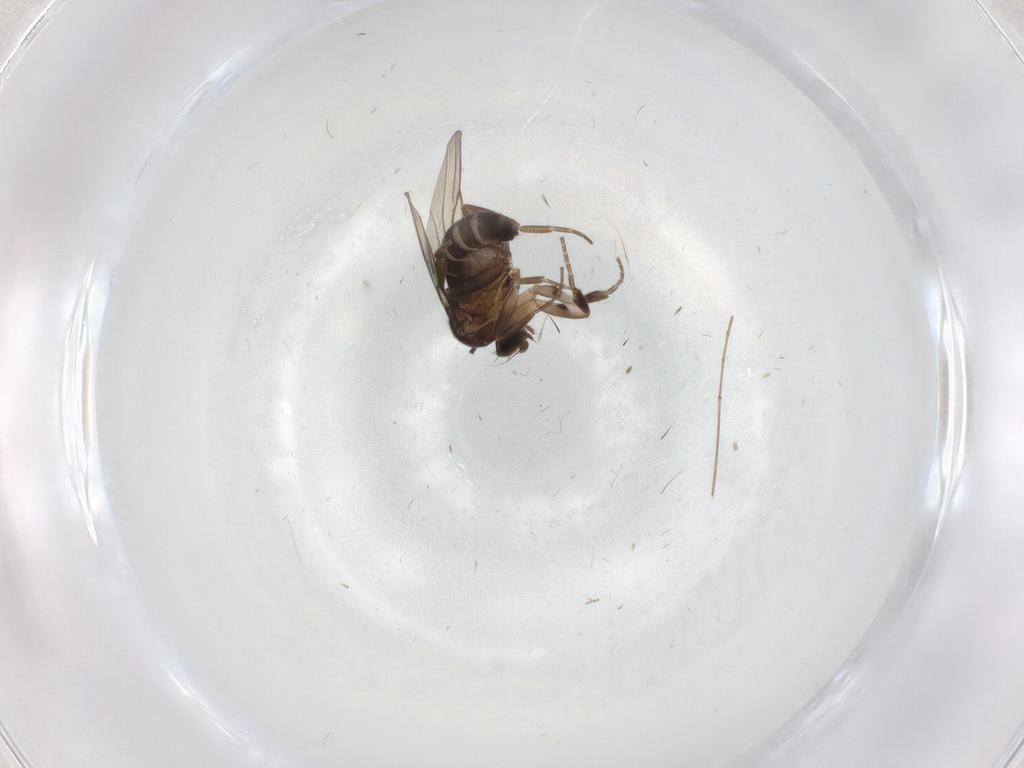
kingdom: Animalia
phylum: Arthropoda
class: Insecta
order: Diptera
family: Phoridae
